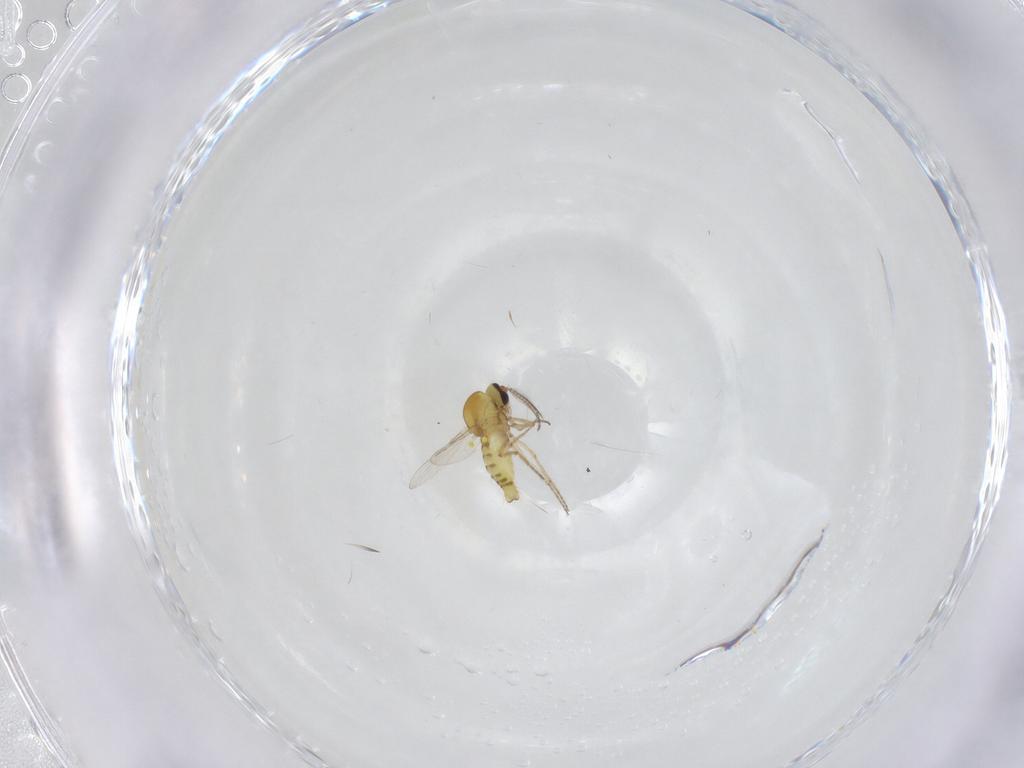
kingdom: Animalia
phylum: Arthropoda
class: Insecta
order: Diptera
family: Ceratopogonidae
